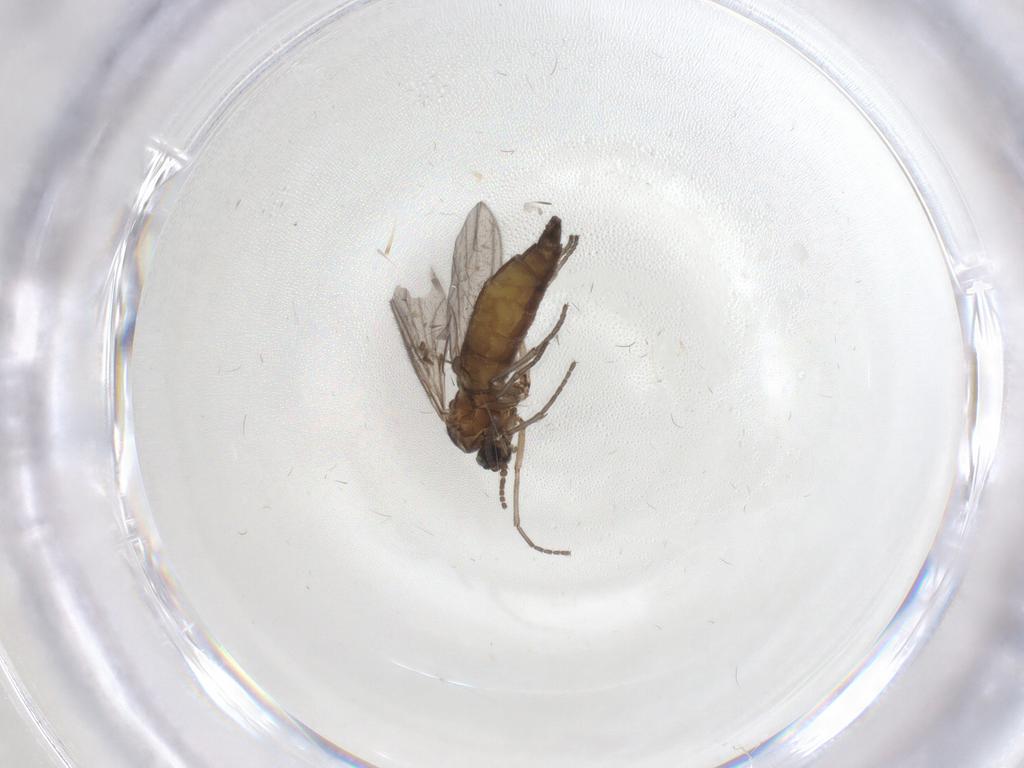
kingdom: Animalia
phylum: Arthropoda
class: Insecta
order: Diptera
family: Sciaridae
